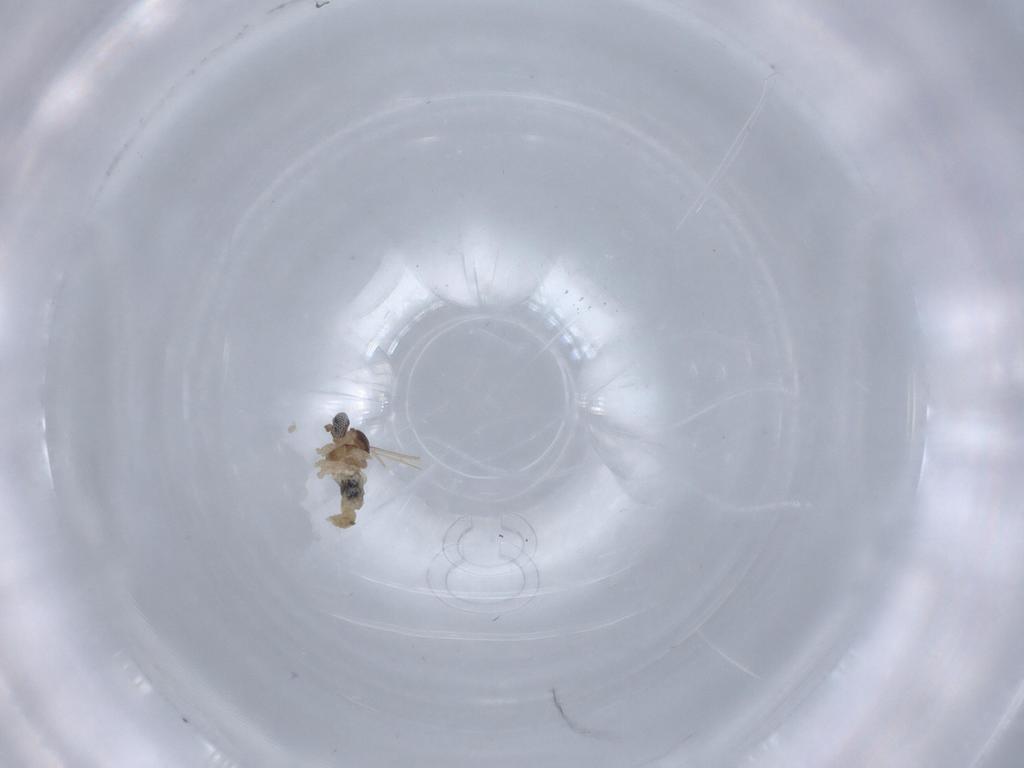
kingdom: Animalia
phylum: Arthropoda
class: Insecta
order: Diptera
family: Cecidomyiidae
